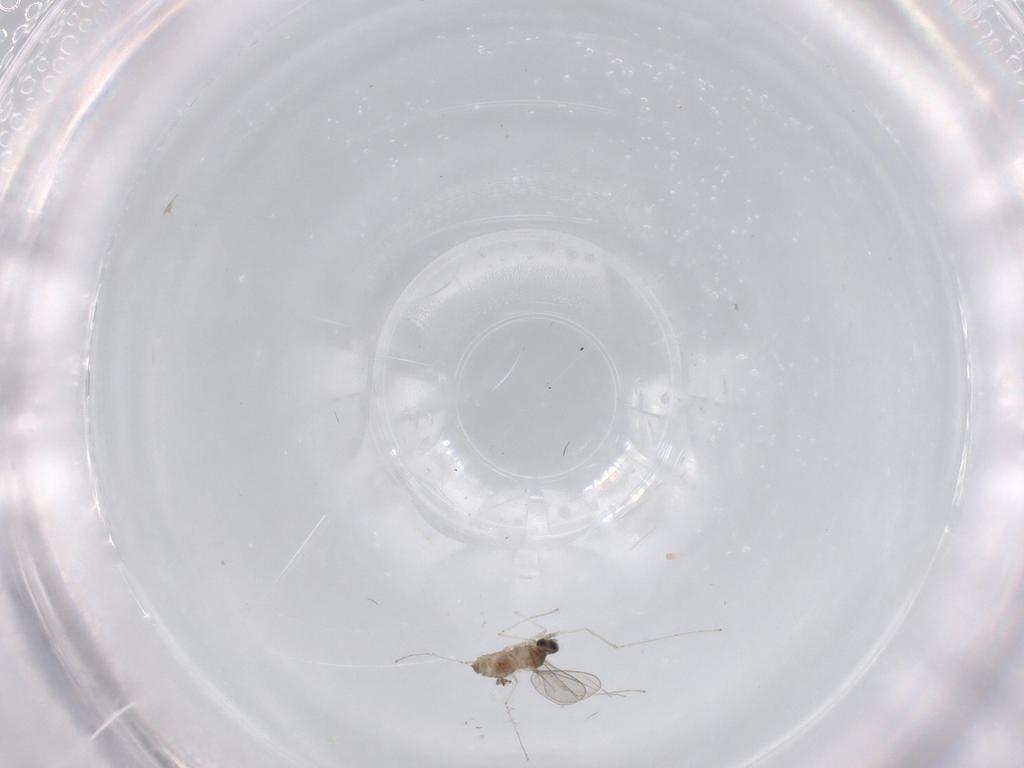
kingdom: Animalia
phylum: Arthropoda
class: Insecta
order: Diptera
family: Cecidomyiidae
